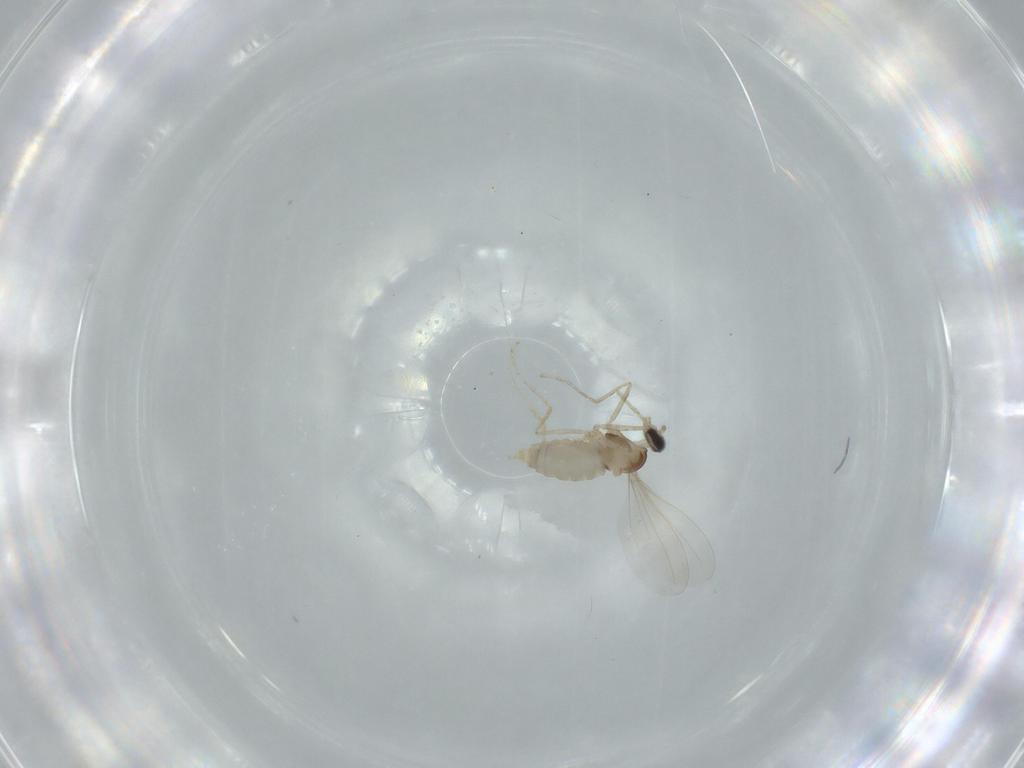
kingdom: Animalia
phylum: Arthropoda
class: Insecta
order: Diptera
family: Cecidomyiidae
